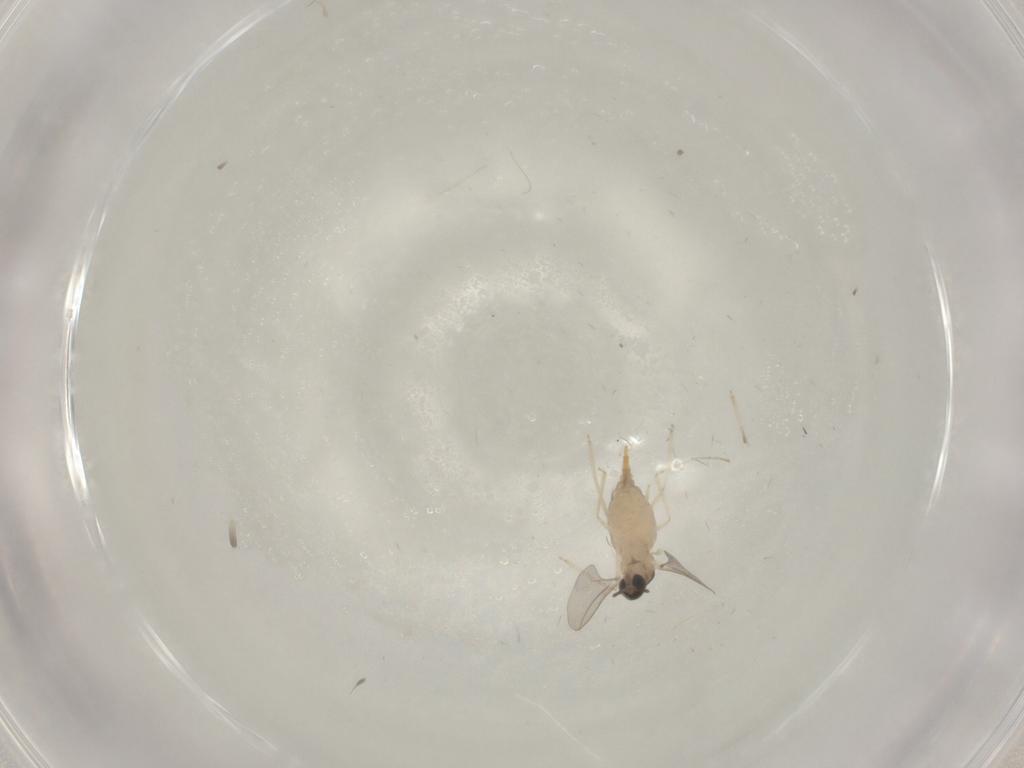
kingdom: Animalia
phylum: Arthropoda
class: Insecta
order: Diptera
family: Cecidomyiidae
